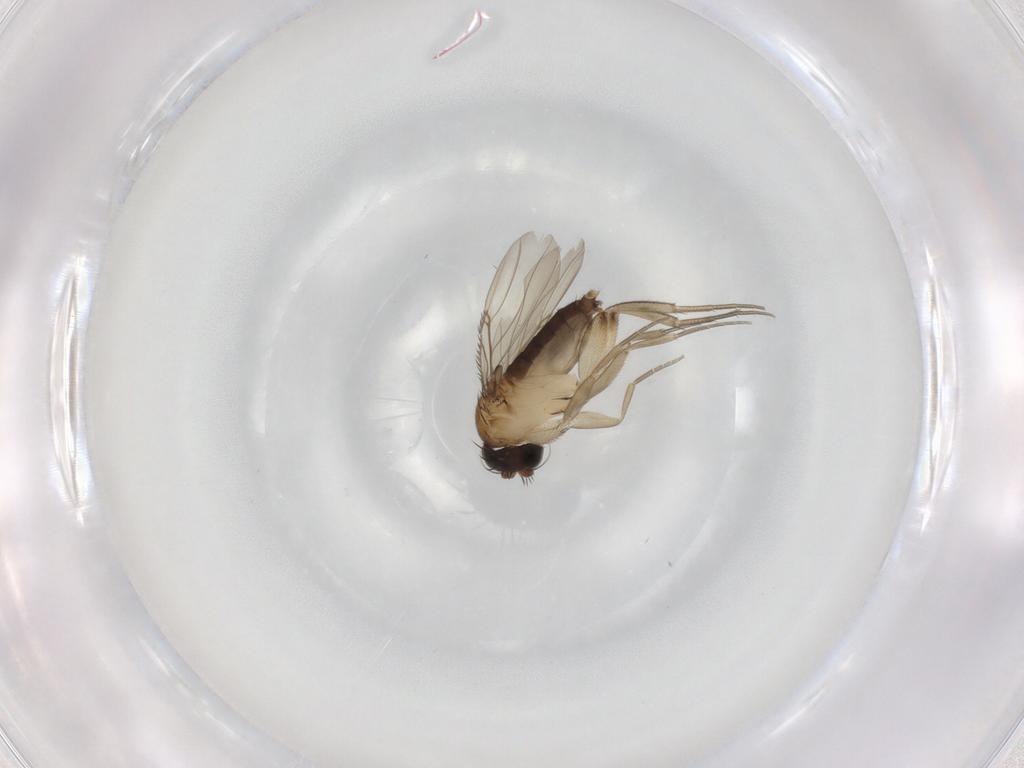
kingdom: Animalia
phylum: Arthropoda
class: Insecta
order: Diptera
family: Phoridae
